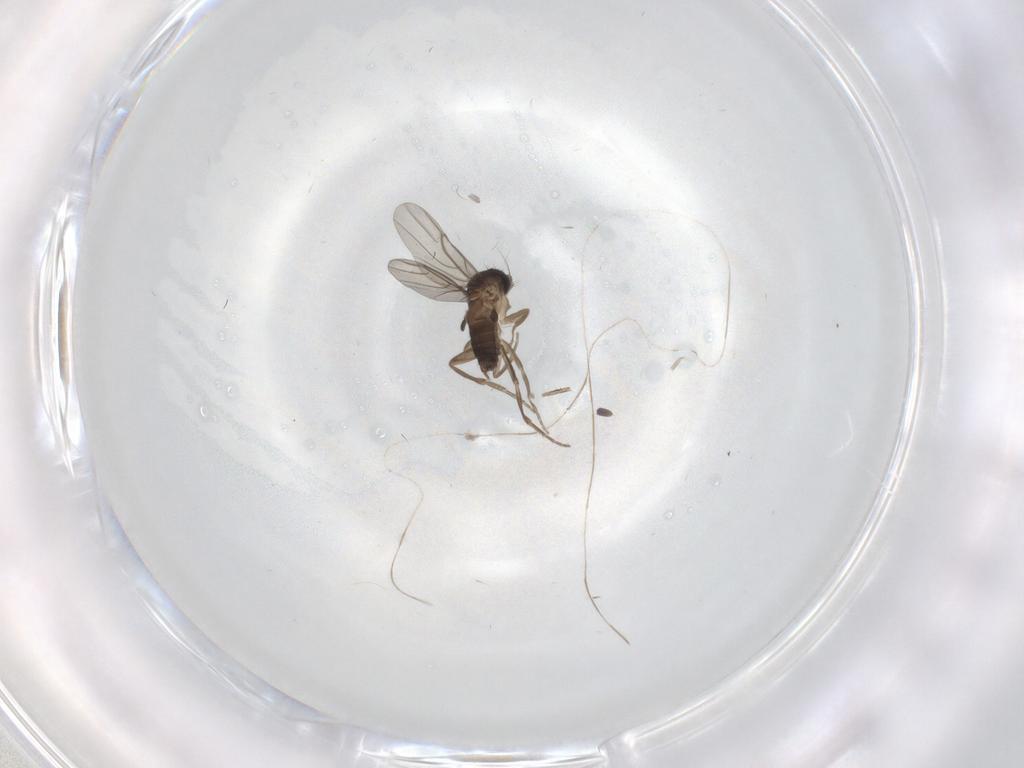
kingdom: Animalia
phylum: Arthropoda
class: Insecta
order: Diptera
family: Phoridae
